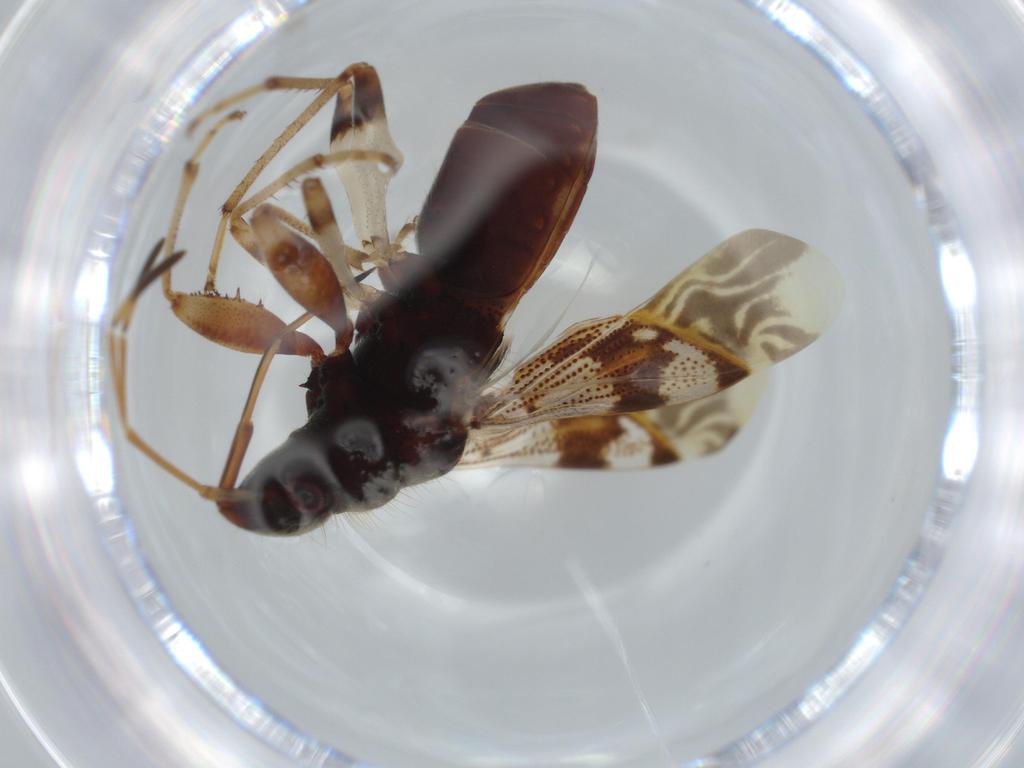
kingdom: Animalia
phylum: Arthropoda
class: Insecta
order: Hemiptera
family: Rhyparochromidae
